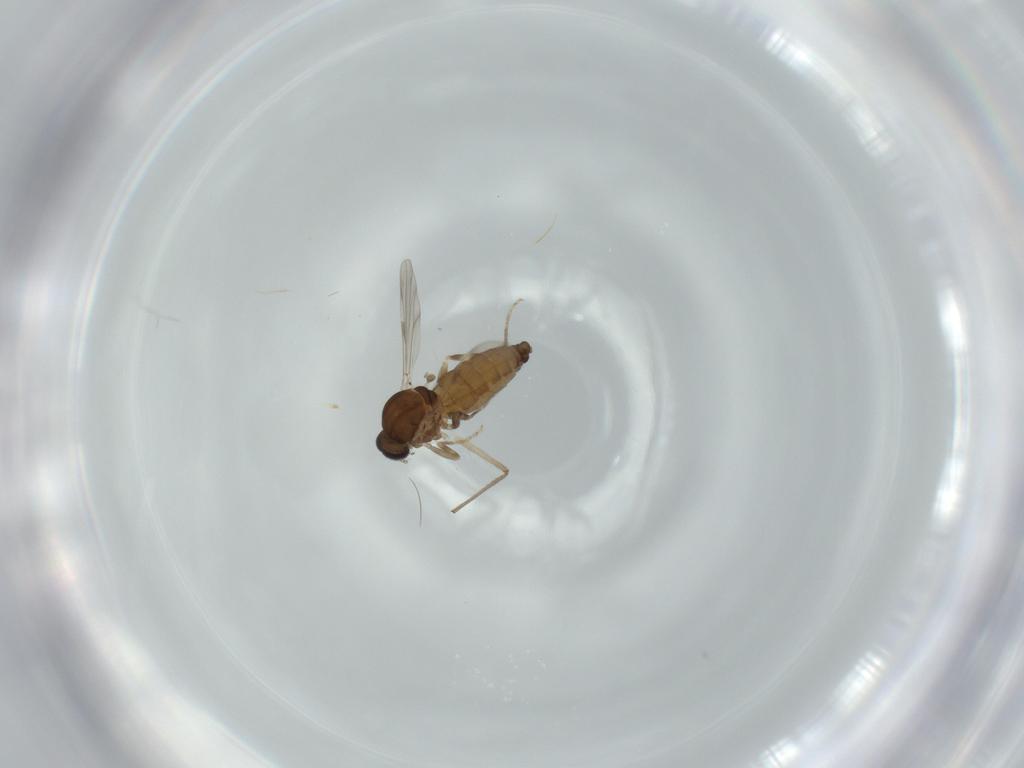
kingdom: Animalia
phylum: Arthropoda
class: Insecta
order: Diptera
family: Ceratopogonidae
